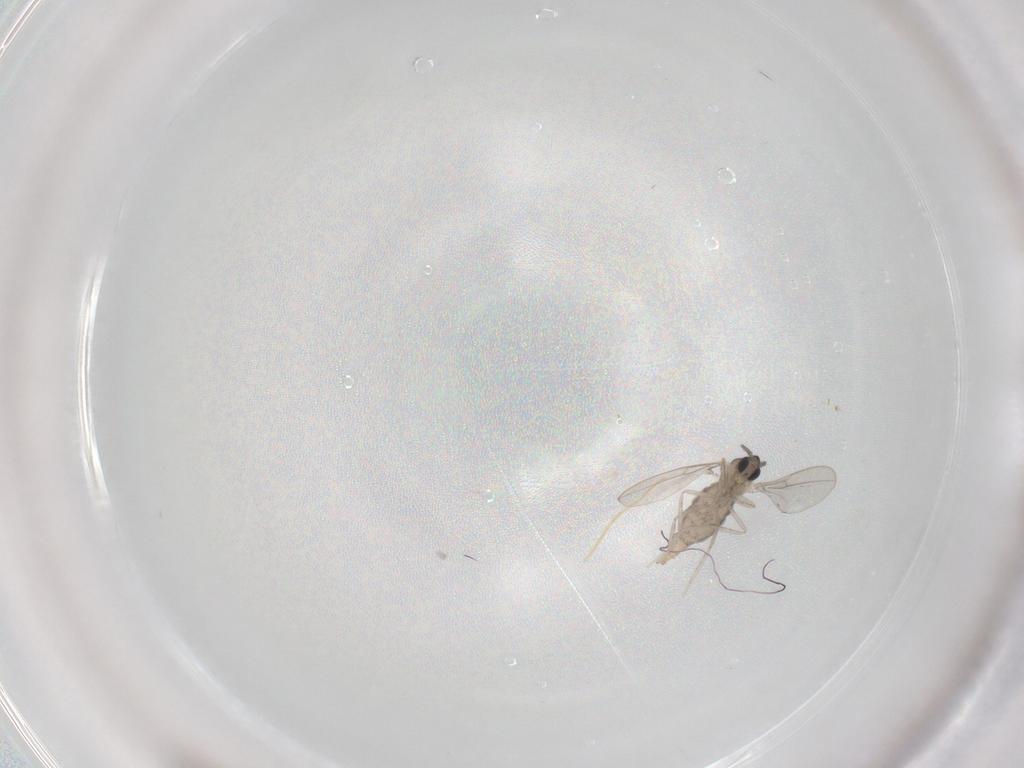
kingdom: Animalia
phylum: Arthropoda
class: Insecta
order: Diptera
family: Cecidomyiidae
